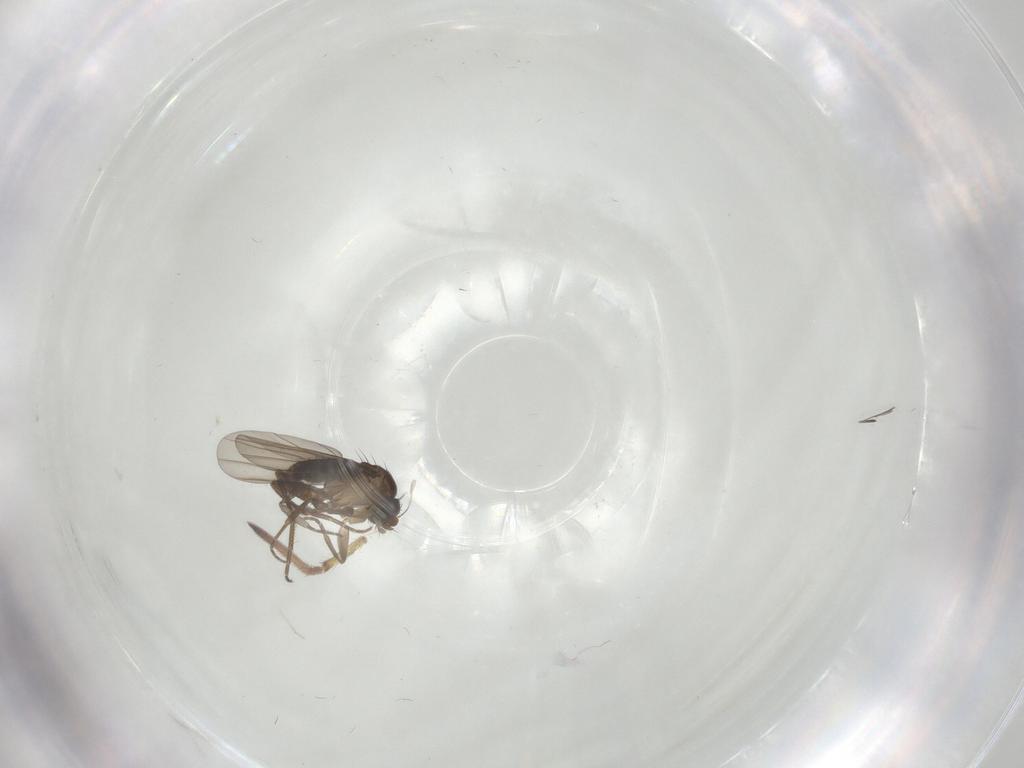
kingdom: Animalia
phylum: Arthropoda
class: Insecta
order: Diptera
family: Phoridae
